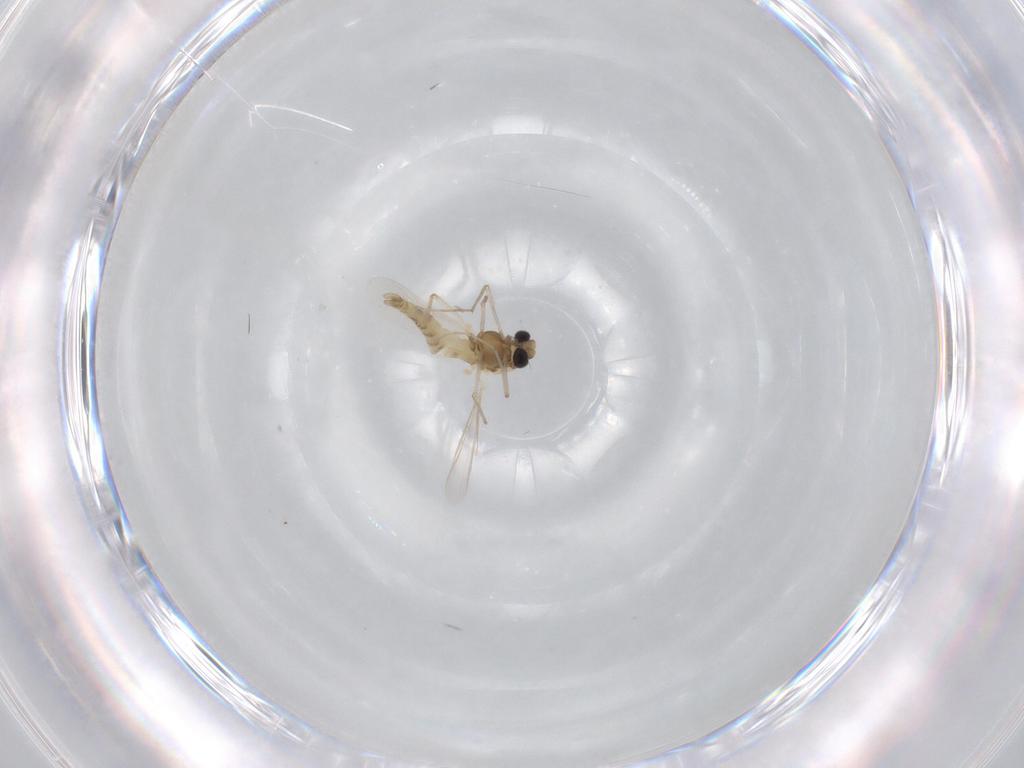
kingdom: Animalia
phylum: Arthropoda
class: Insecta
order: Diptera
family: Chironomidae
